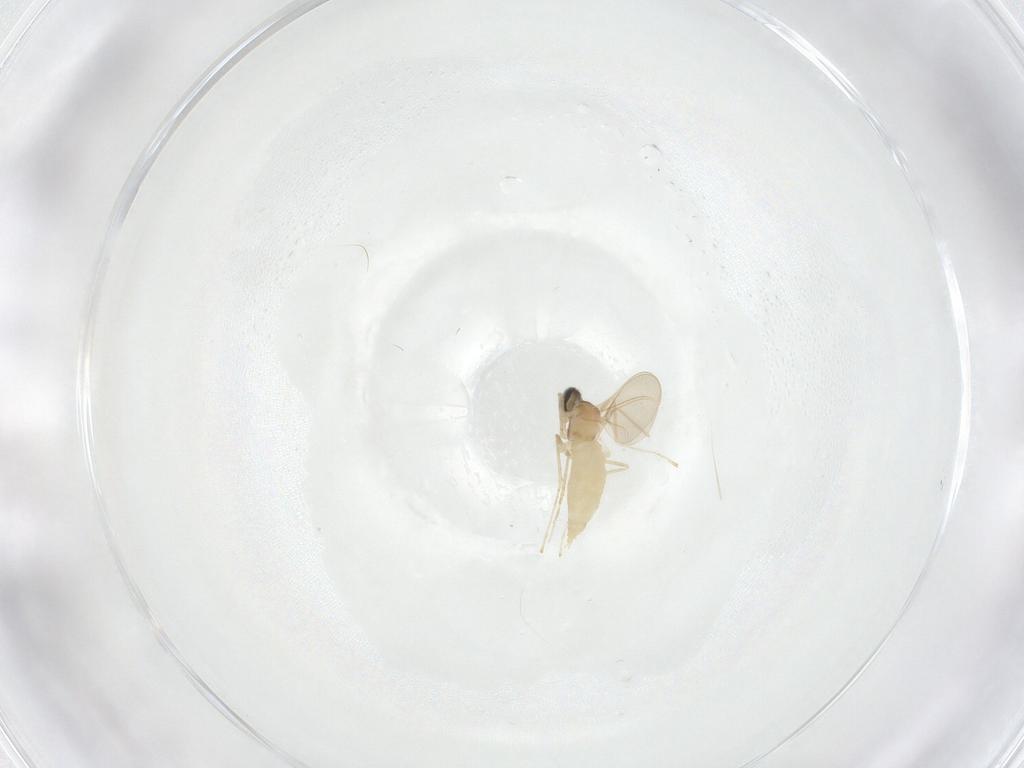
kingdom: Animalia
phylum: Arthropoda
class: Insecta
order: Diptera
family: Cecidomyiidae
